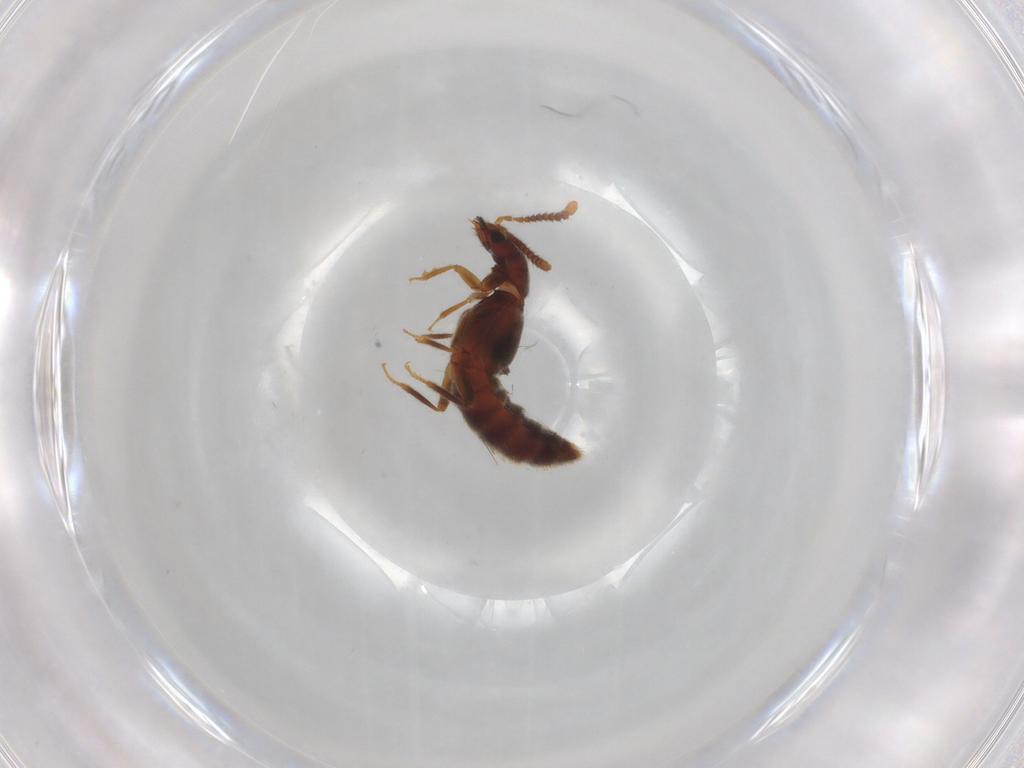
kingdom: Animalia
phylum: Arthropoda
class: Insecta
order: Coleoptera
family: Staphylinidae
